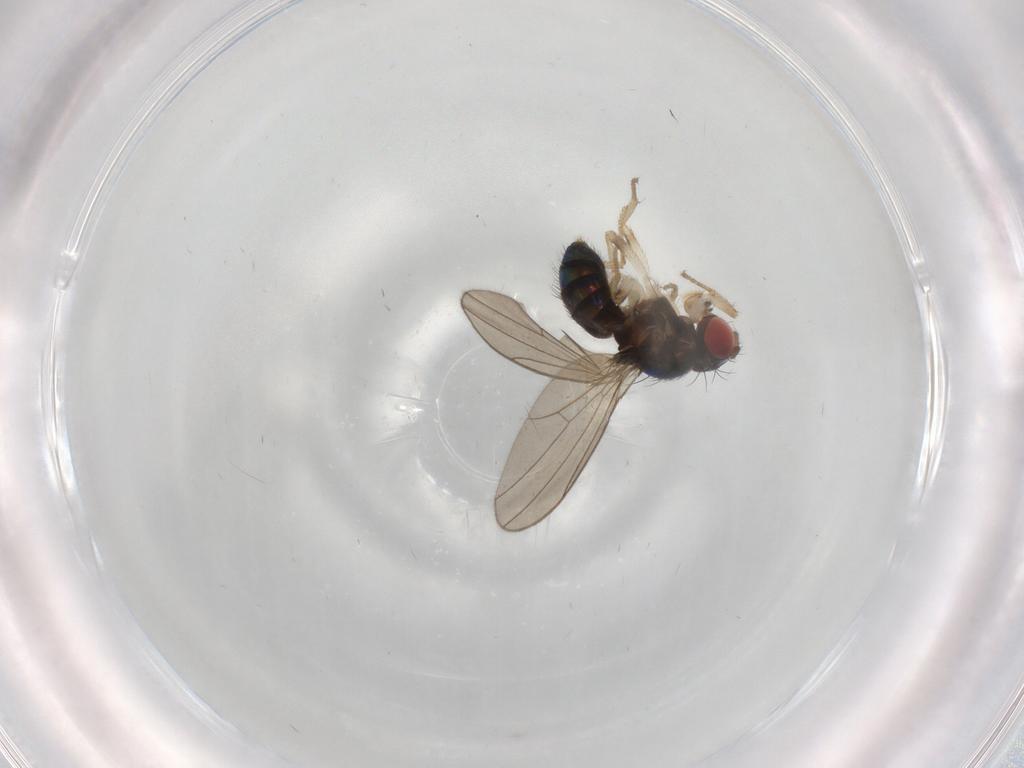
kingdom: Animalia
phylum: Arthropoda
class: Insecta
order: Diptera
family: Drosophilidae
